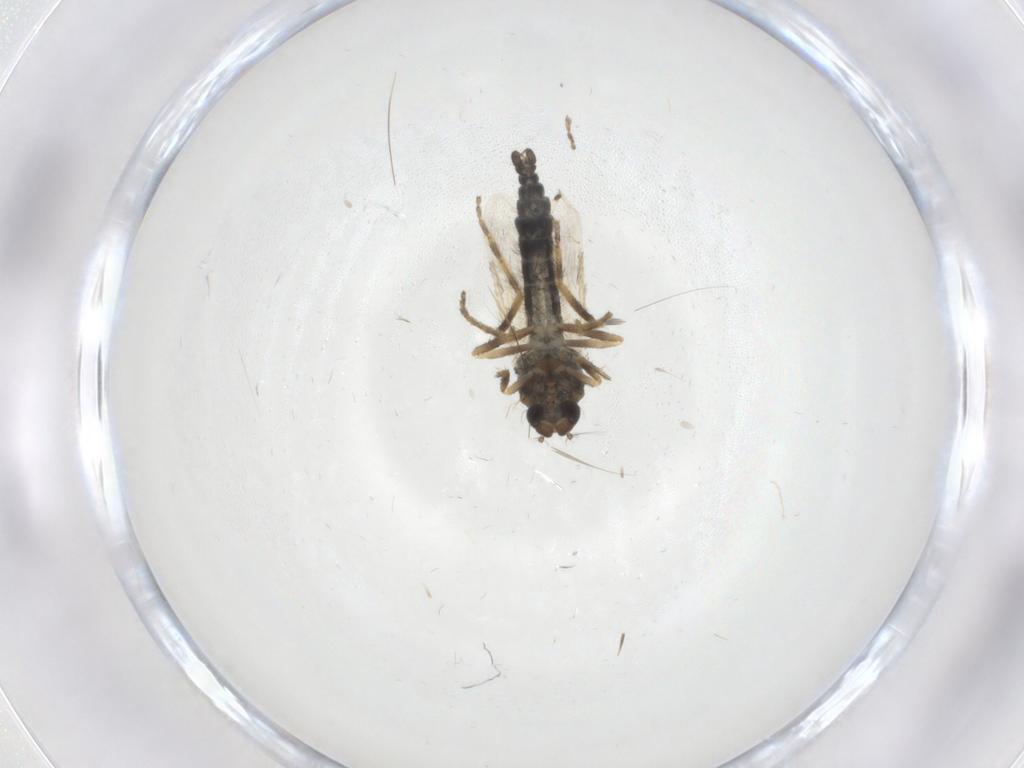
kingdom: Animalia
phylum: Arthropoda
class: Insecta
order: Diptera
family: Ceratopogonidae
